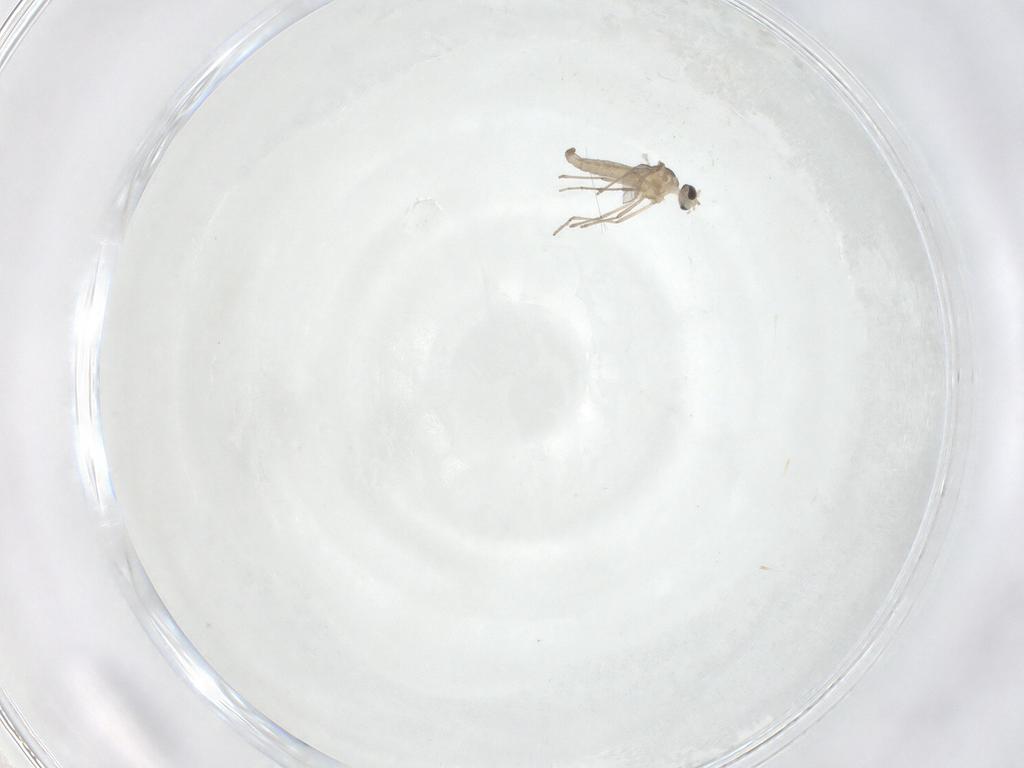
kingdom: Animalia
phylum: Arthropoda
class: Insecta
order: Diptera
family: Cecidomyiidae
